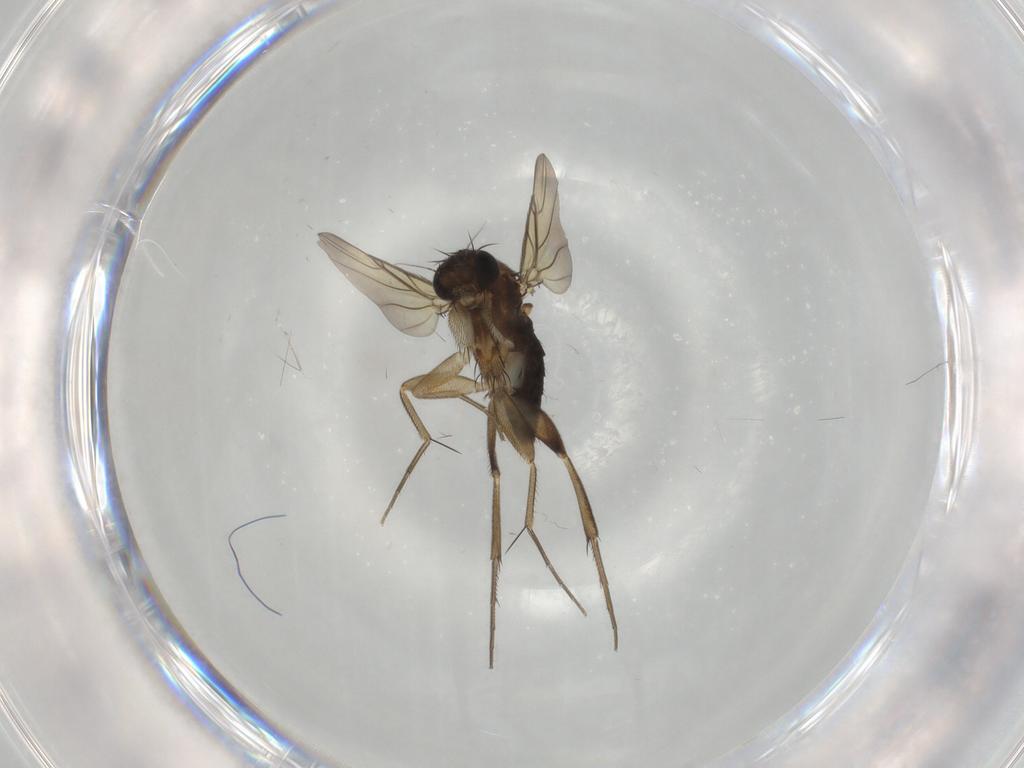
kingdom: Animalia
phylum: Arthropoda
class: Insecta
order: Diptera
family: Phoridae
